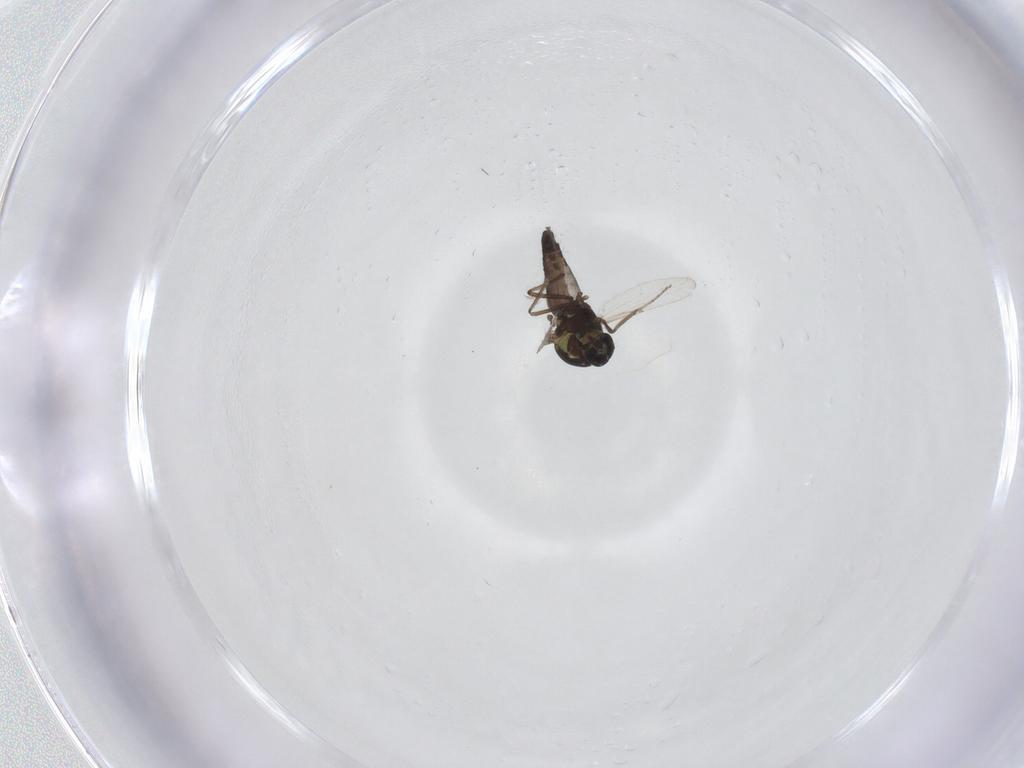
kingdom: Animalia
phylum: Arthropoda
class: Insecta
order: Diptera
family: Ceratopogonidae
